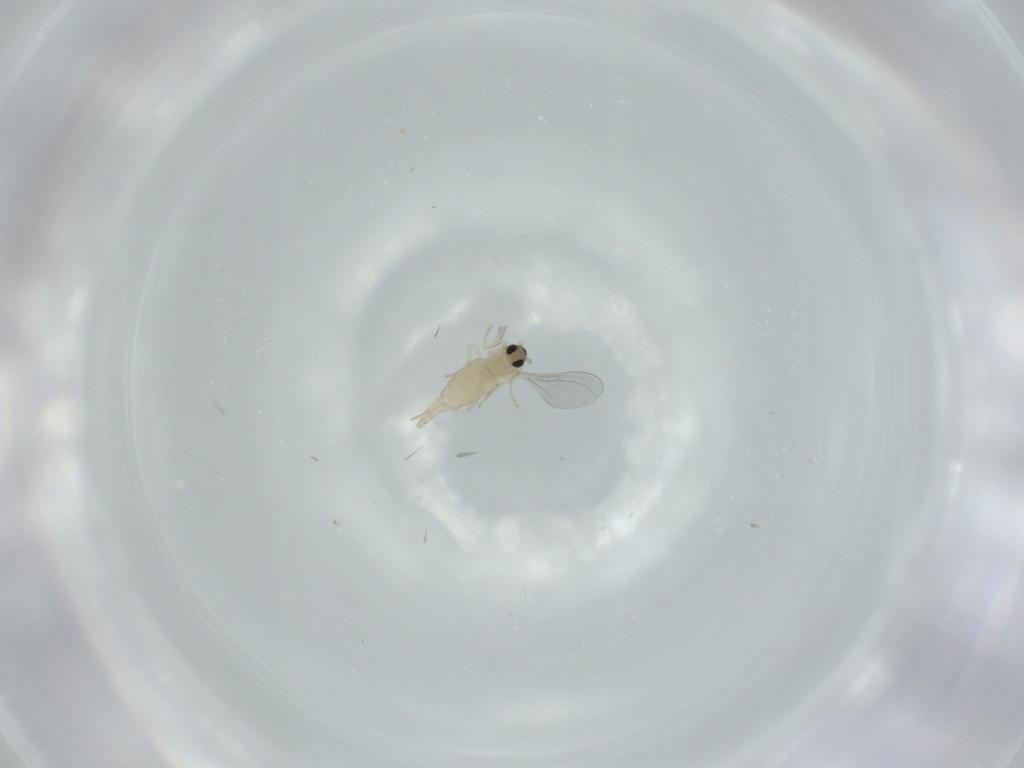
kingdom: Animalia
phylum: Arthropoda
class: Insecta
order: Diptera
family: Cecidomyiidae
